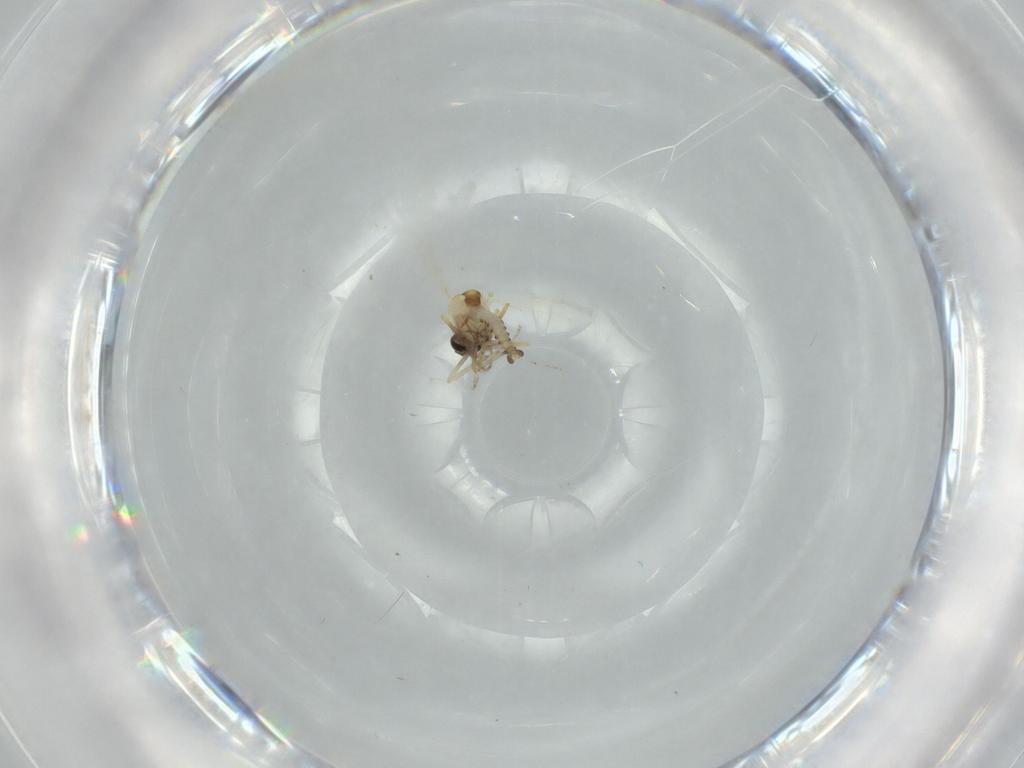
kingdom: Animalia
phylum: Arthropoda
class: Insecta
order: Diptera
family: Ceratopogonidae
